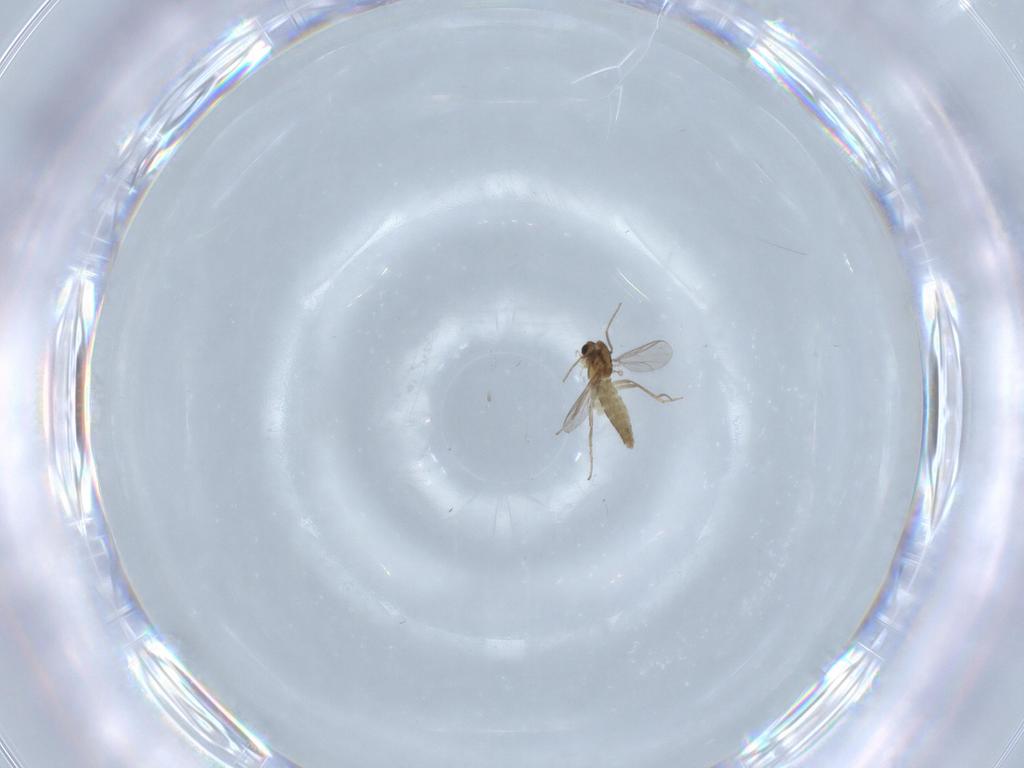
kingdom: Animalia
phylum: Arthropoda
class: Insecta
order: Diptera
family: Chironomidae
